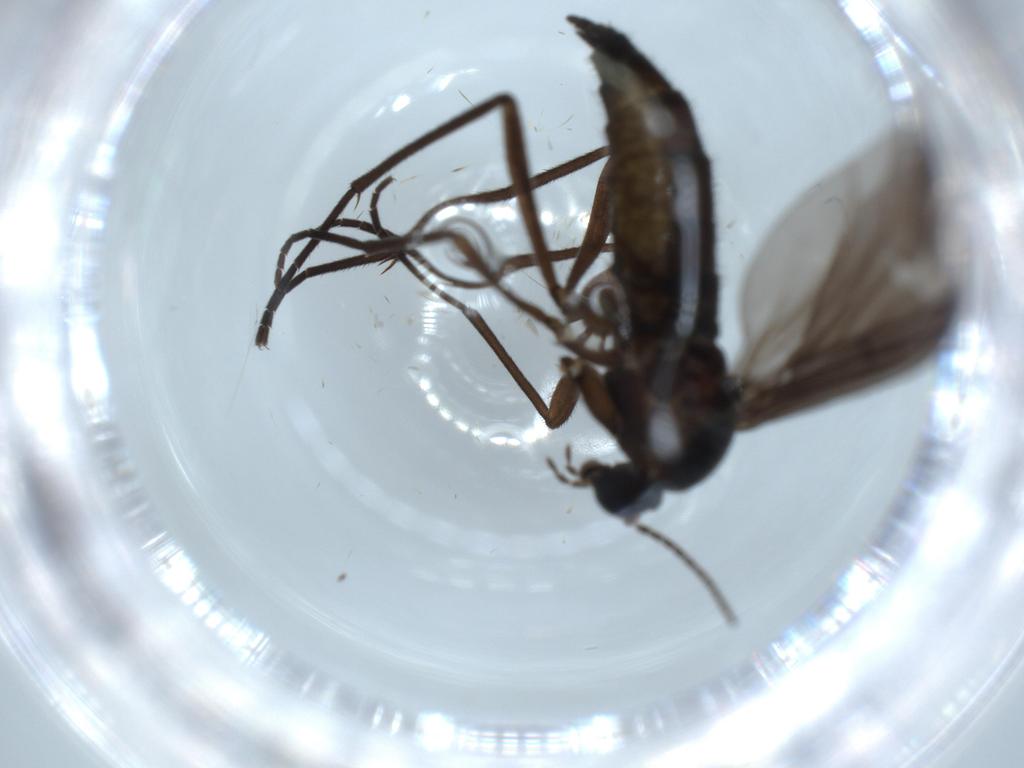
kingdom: Animalia
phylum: Arthropoda
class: Insecta
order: Diptera
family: Sciaridae
